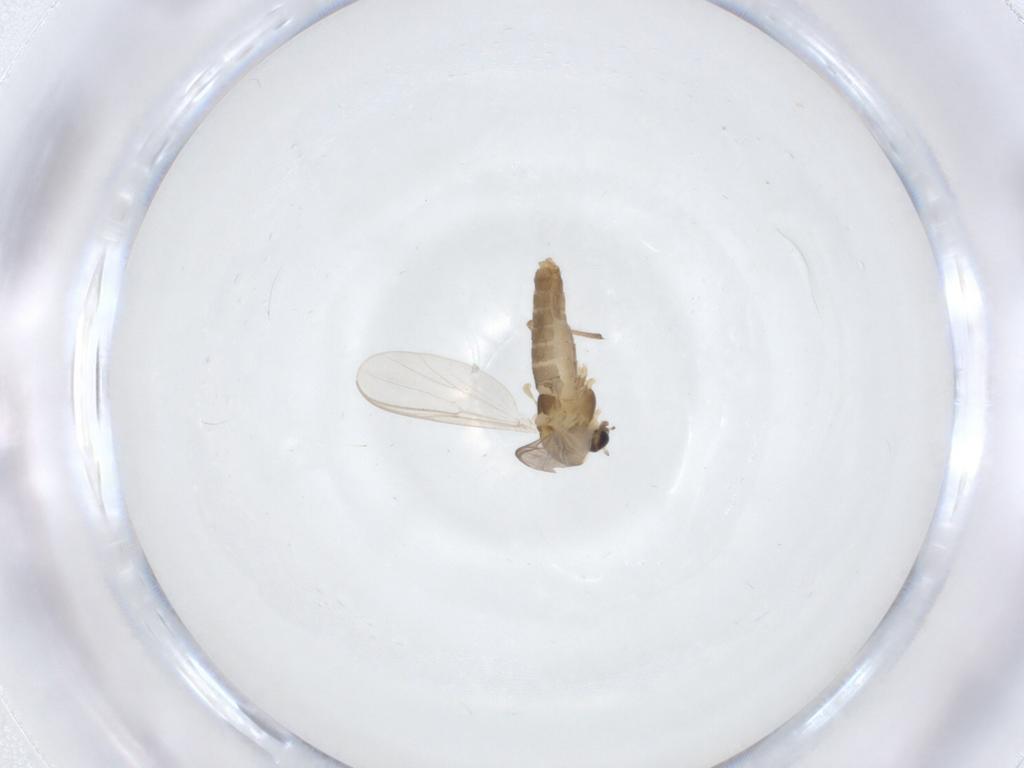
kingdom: Animalia
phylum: Arthropoda
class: Insecta
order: Diptera
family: Chironomidae
